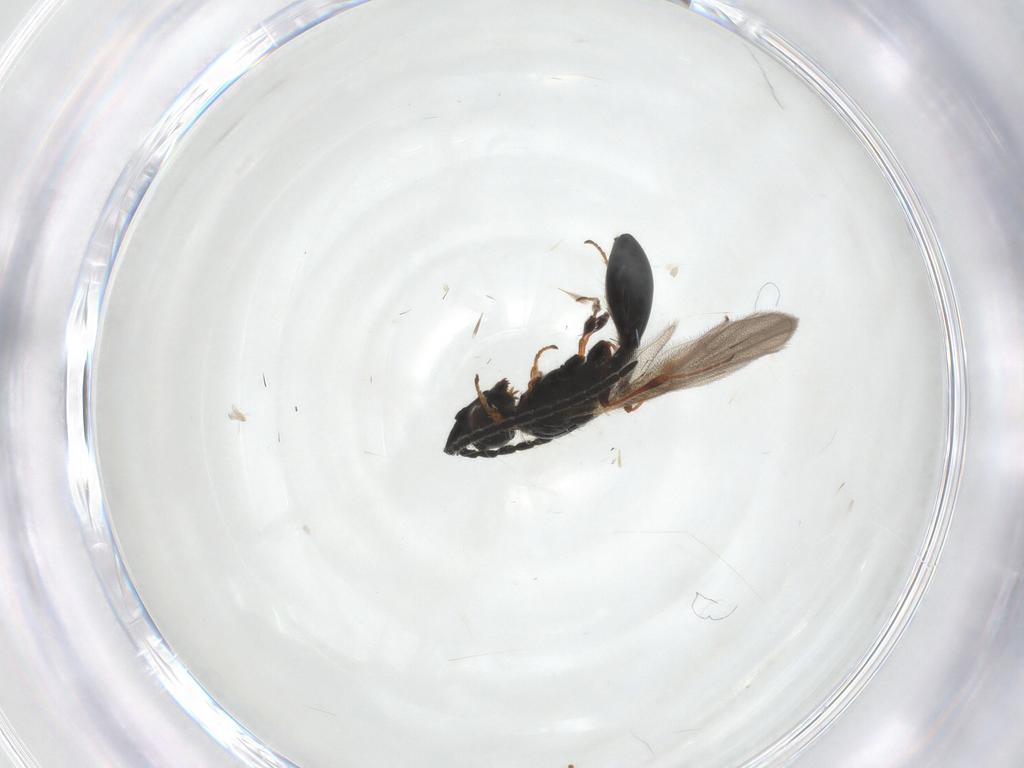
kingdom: Animalia
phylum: Arthropoda
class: Insecta
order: Hymenoptera
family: Diapriidae
